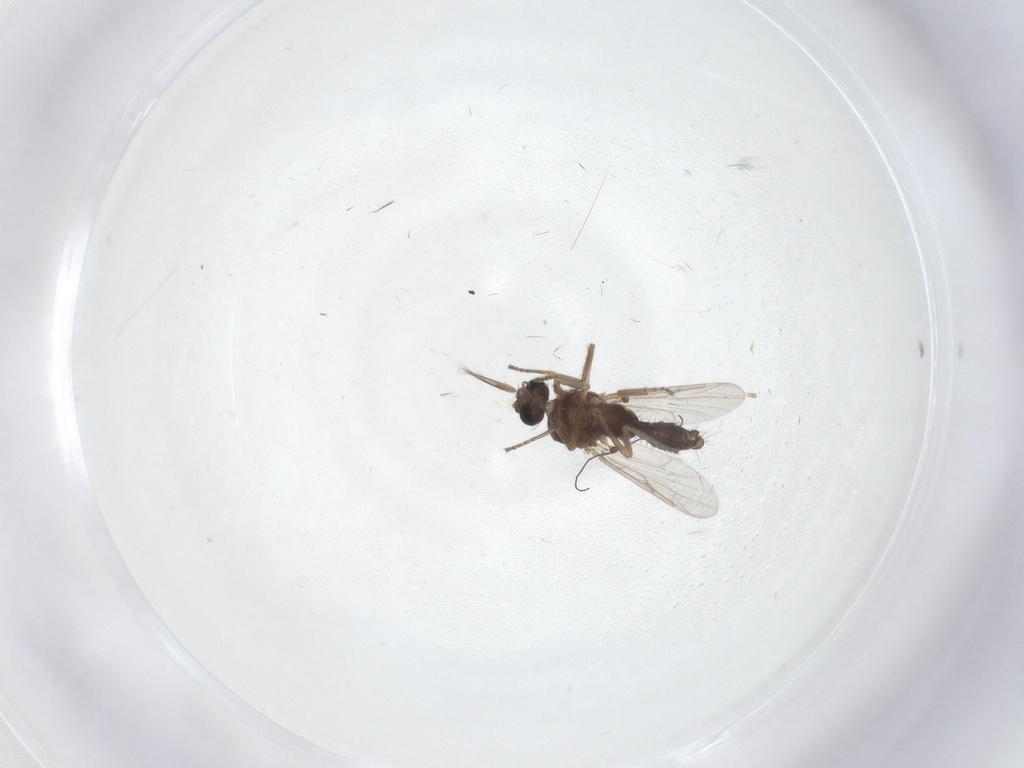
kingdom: Animalia
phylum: Arthropoda
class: Insecta
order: Diptera
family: Ceratopogonidae
